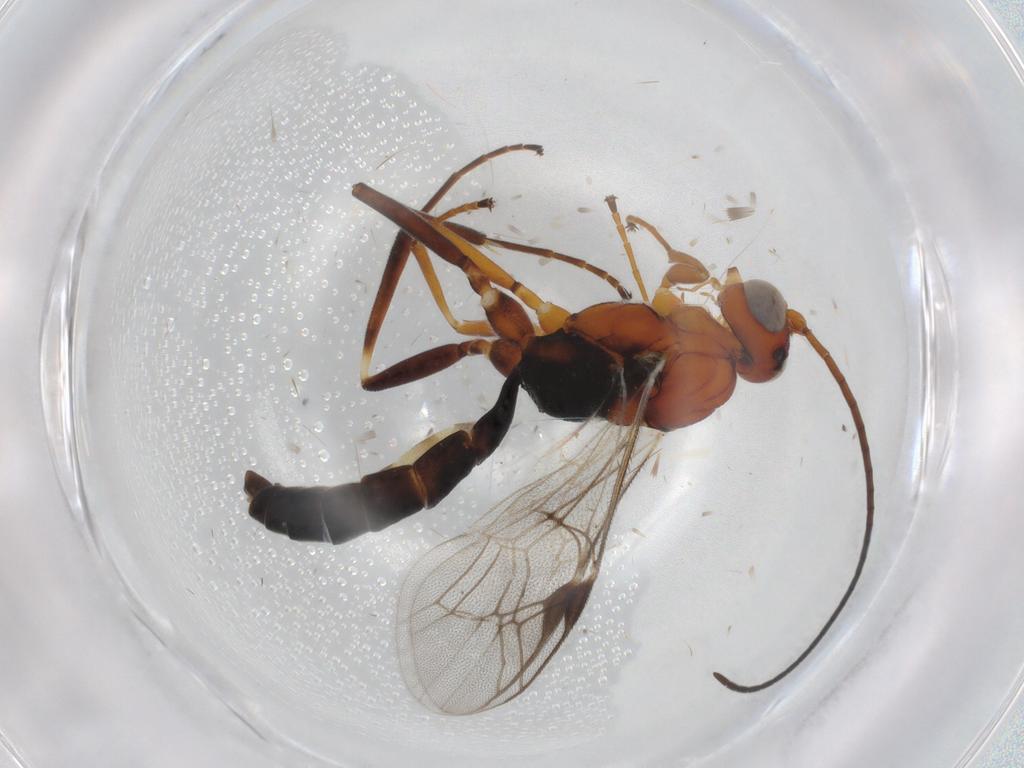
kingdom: Animalia
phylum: Arthropoda
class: Insecta
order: Hymenoptera
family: Ichneumonidae
